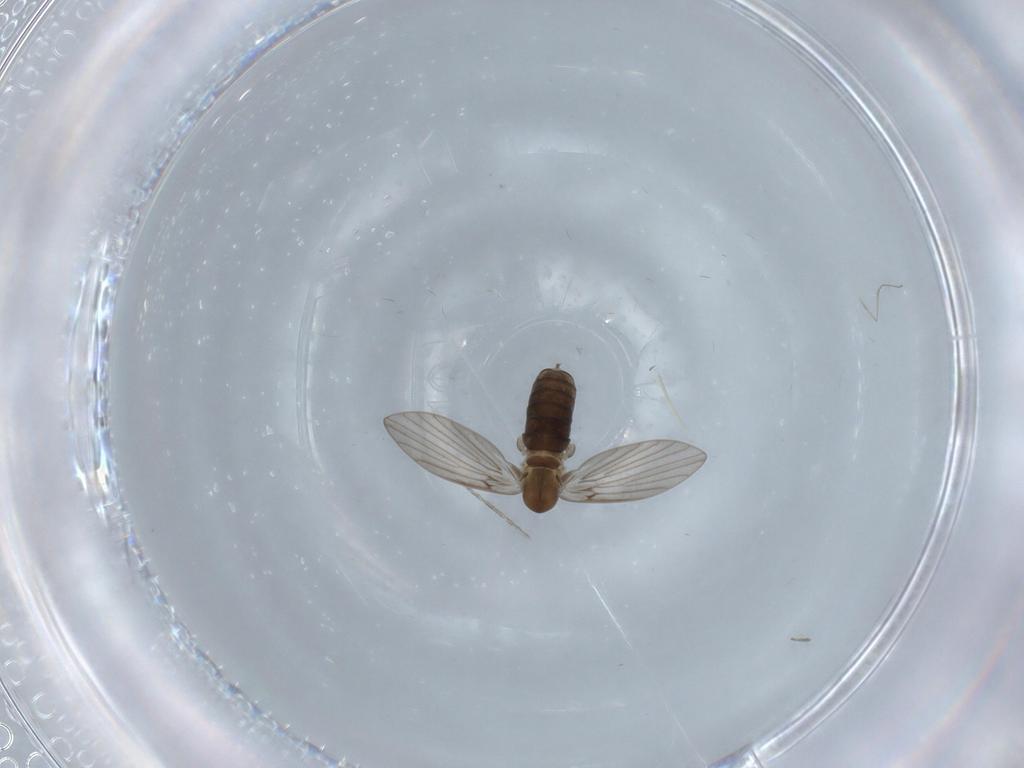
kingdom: Animalia
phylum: Arthropoda
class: Insecta
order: Diptera
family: Psychodidae
